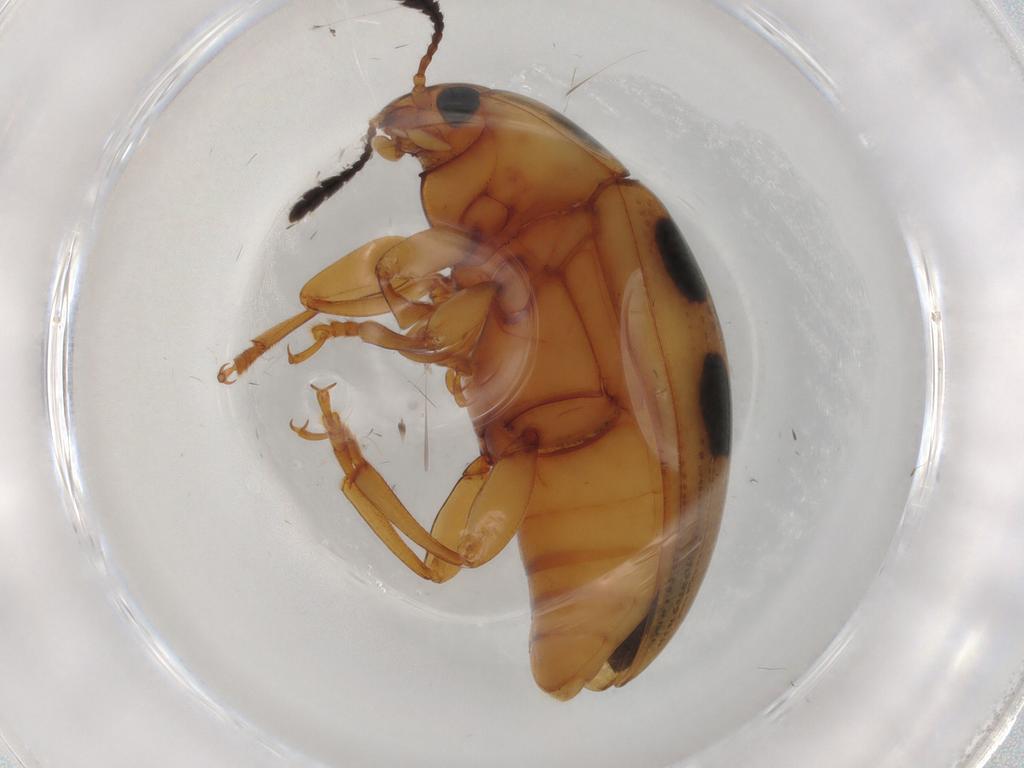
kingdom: Animalia
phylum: Arthropoda
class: Insecta
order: Coleoptera
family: Erotylidae
